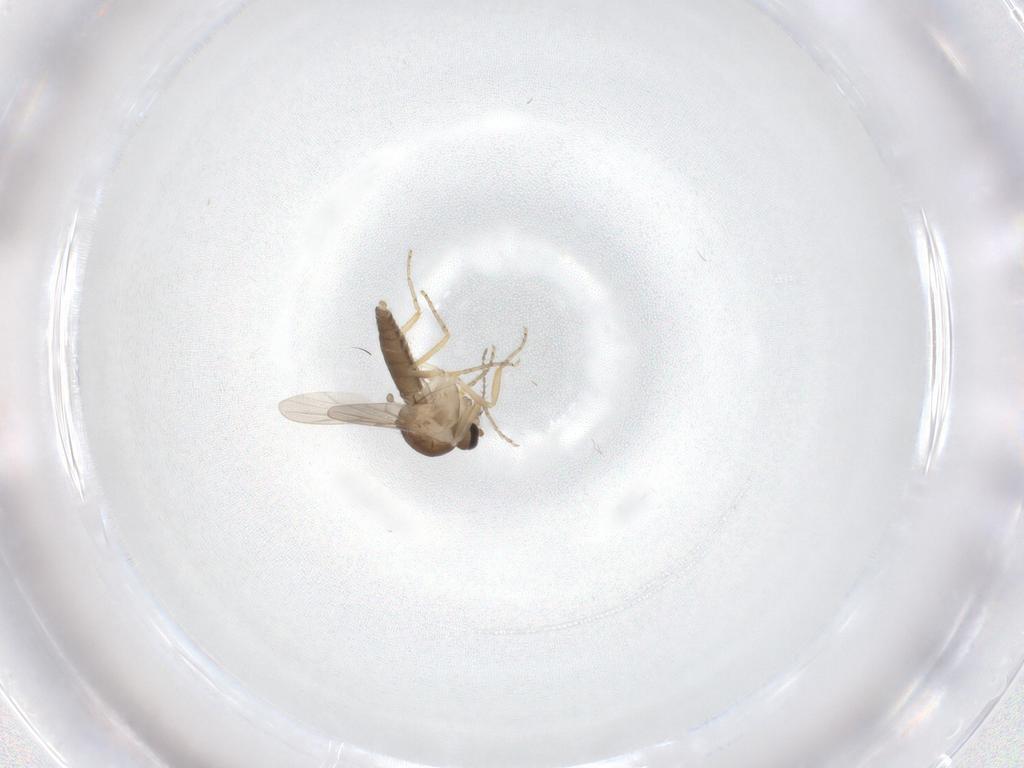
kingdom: Animalia
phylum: Arthropoda
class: Insecta
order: Diptera
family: Ceratopogonidae
